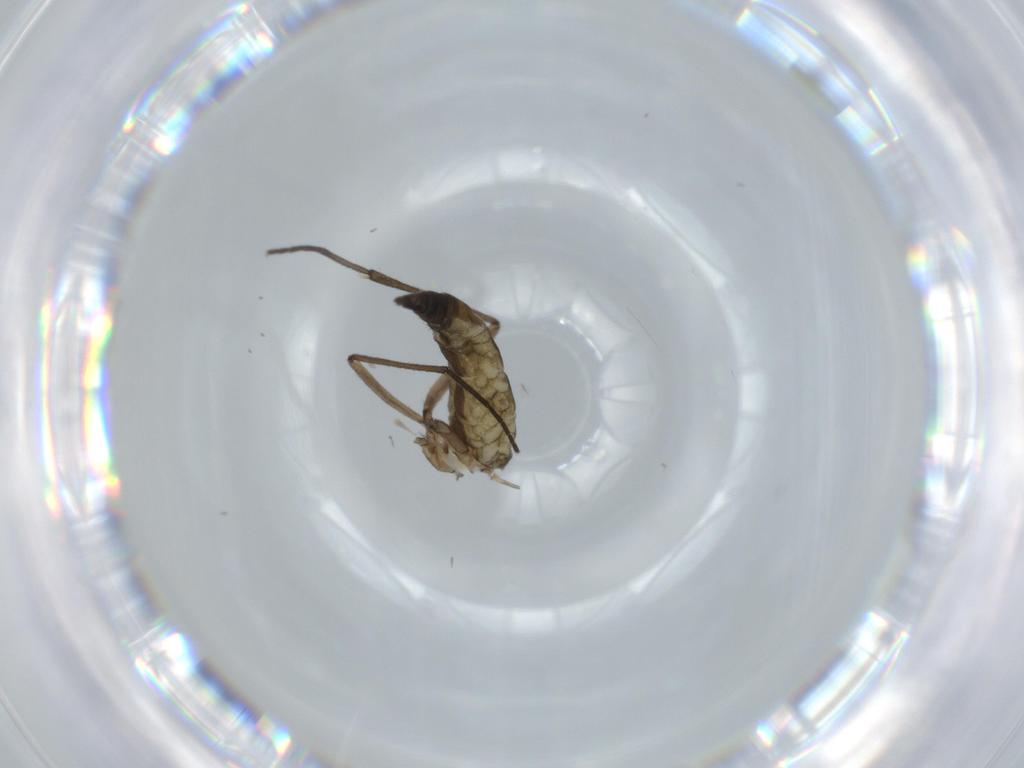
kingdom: Animalia
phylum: Arthropoda
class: Insecta
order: Diptera
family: Sciaridae
